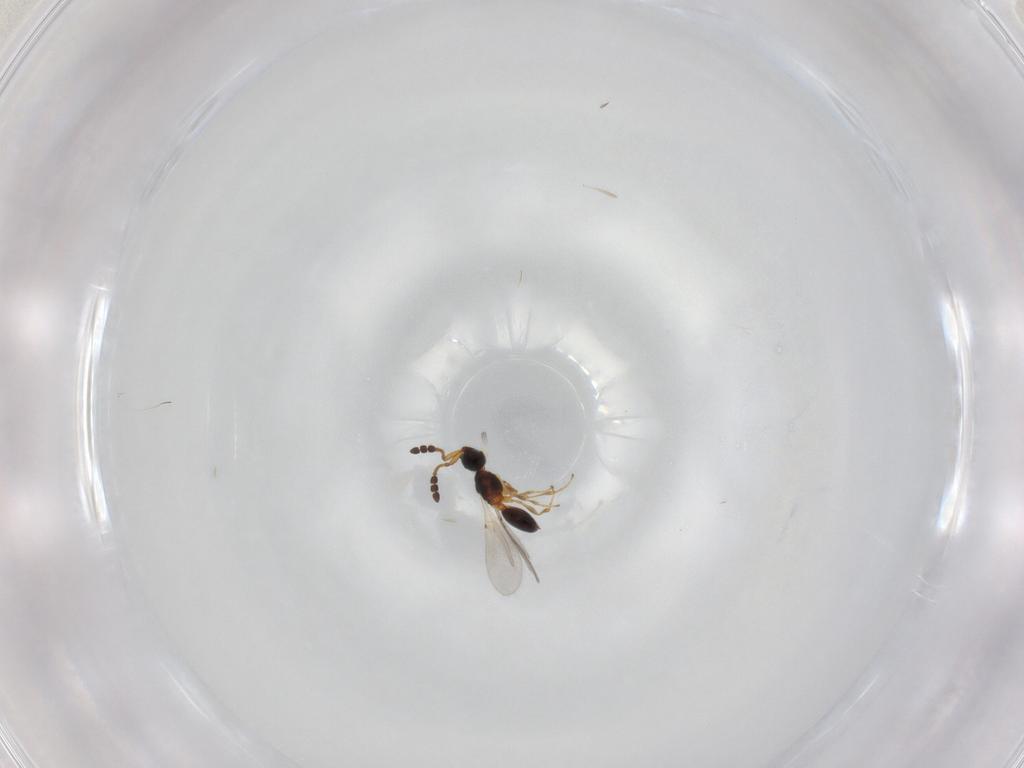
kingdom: Animalia
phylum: Arthropoda
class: Insecta
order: Hymenoptera
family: Diapriidae
